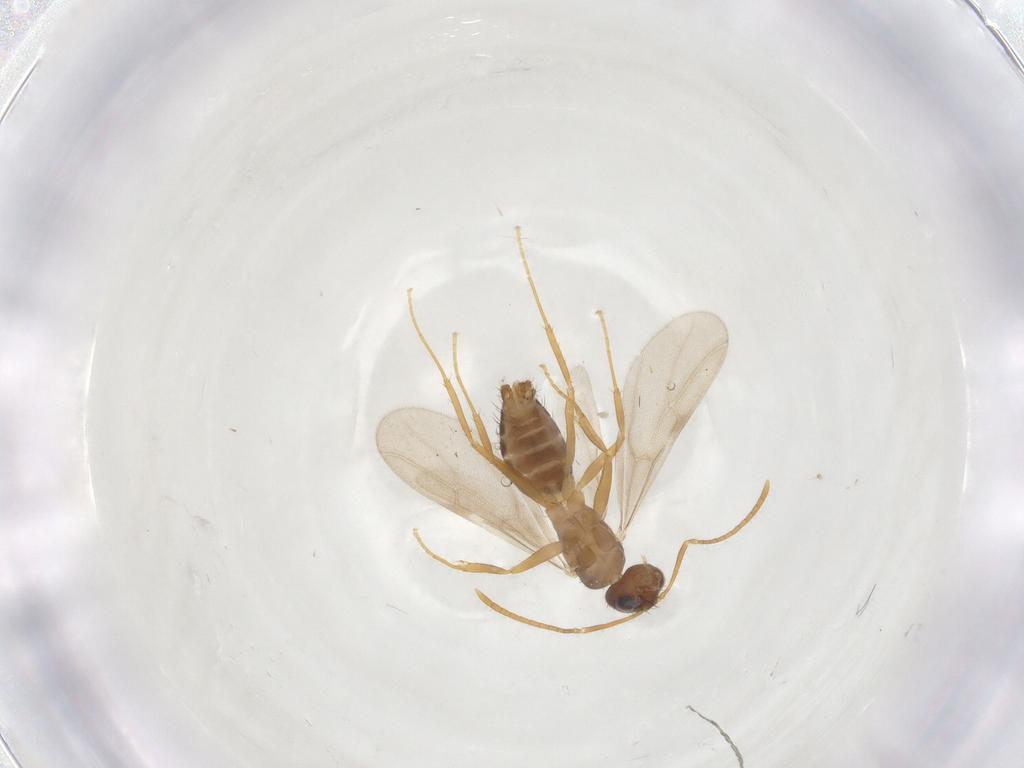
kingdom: Animalia
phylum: Arthropoda
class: Insecta
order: Hymenoptera
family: Formicidae
